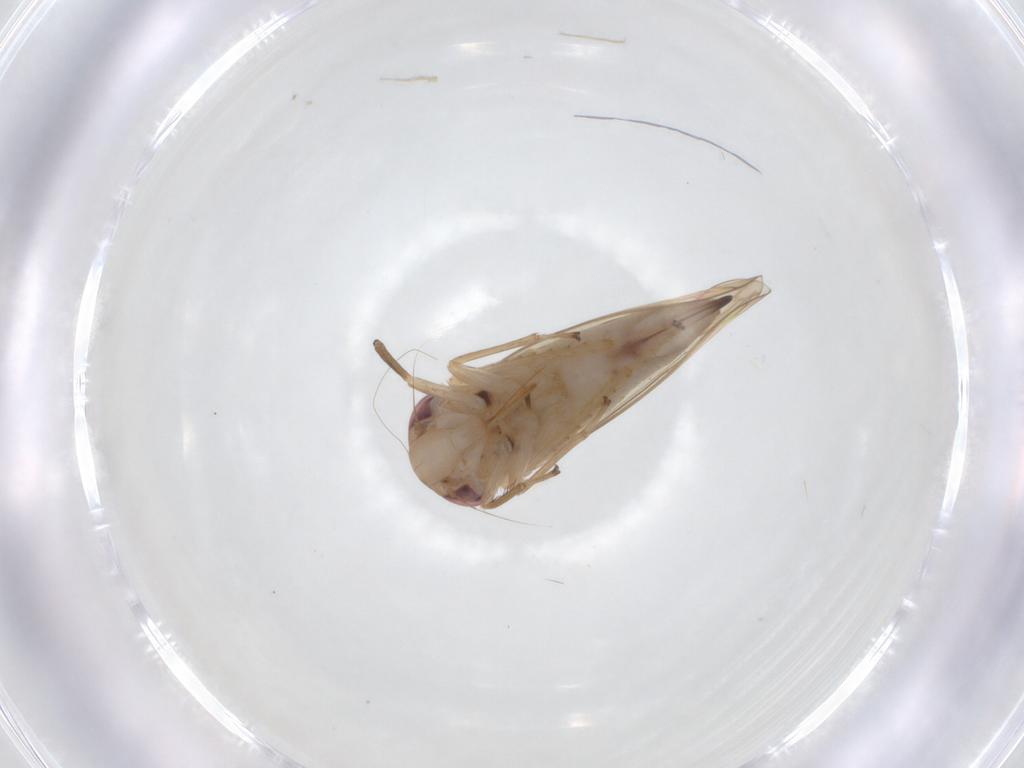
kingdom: Animalia
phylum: Arthropoda
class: Insecta
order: Hemiptera
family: Cicadellidae
